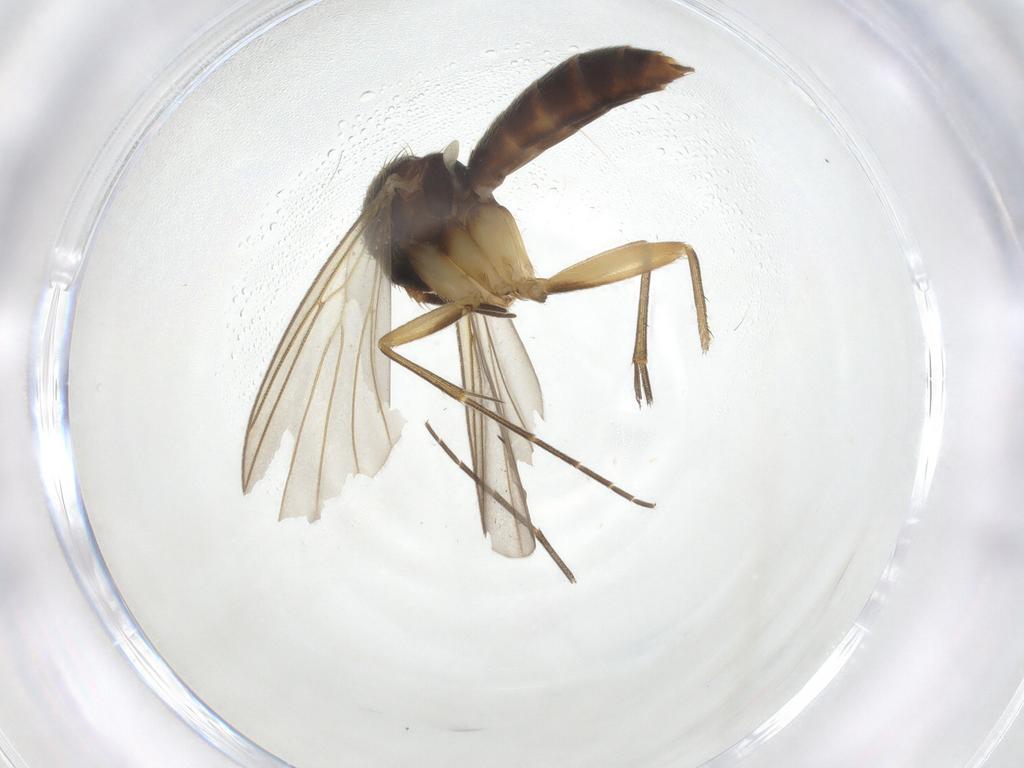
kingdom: Animalia
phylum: Arthropoda
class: Insecta
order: Diptera
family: Mycetophilidae
